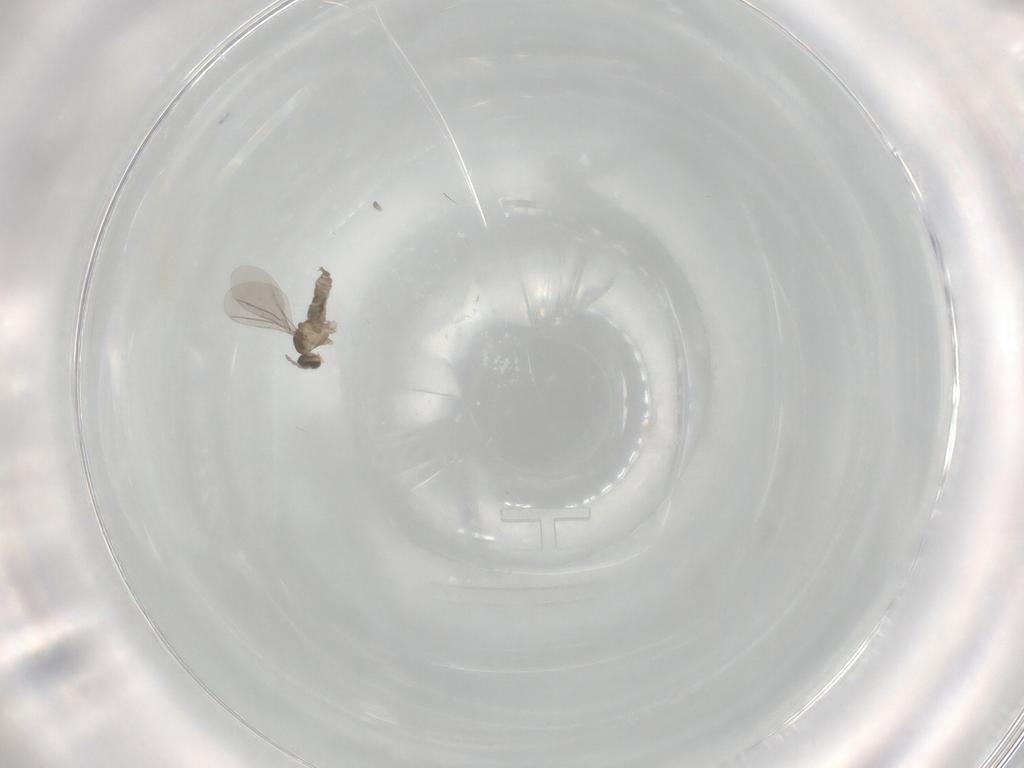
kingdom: Animalia
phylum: Arthropoda
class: Insecta
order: Diptera
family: Cecidomyiidae
